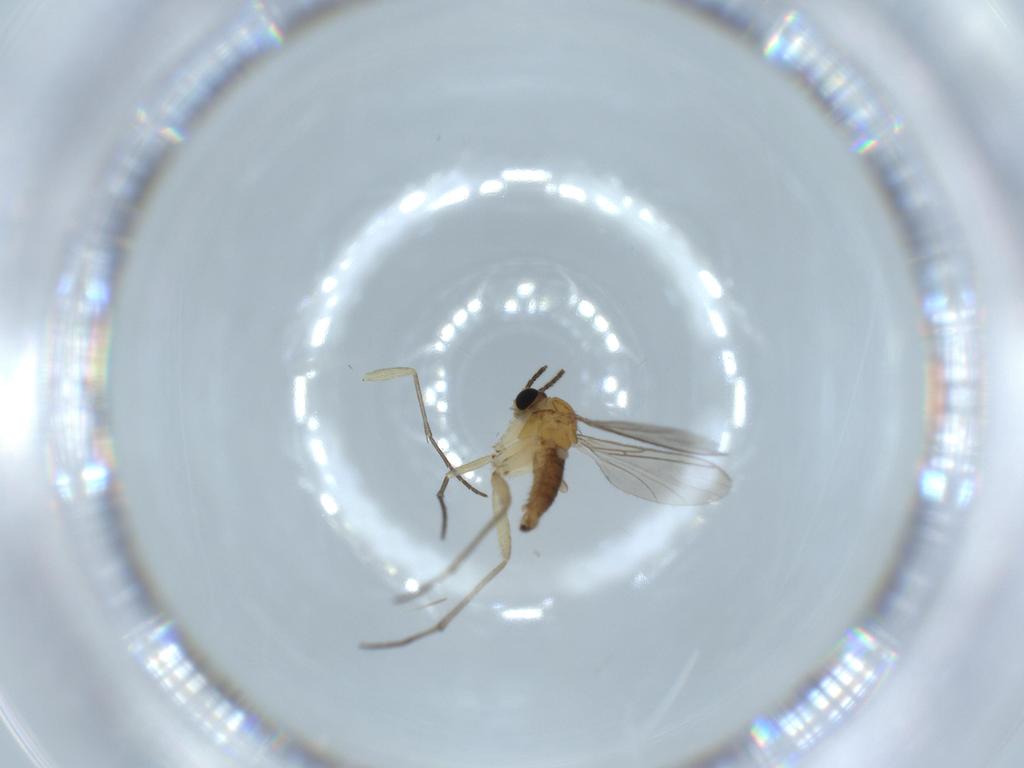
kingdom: Animalia
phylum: Arthropoda
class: Insecta
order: Diptera
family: Sciaridae
